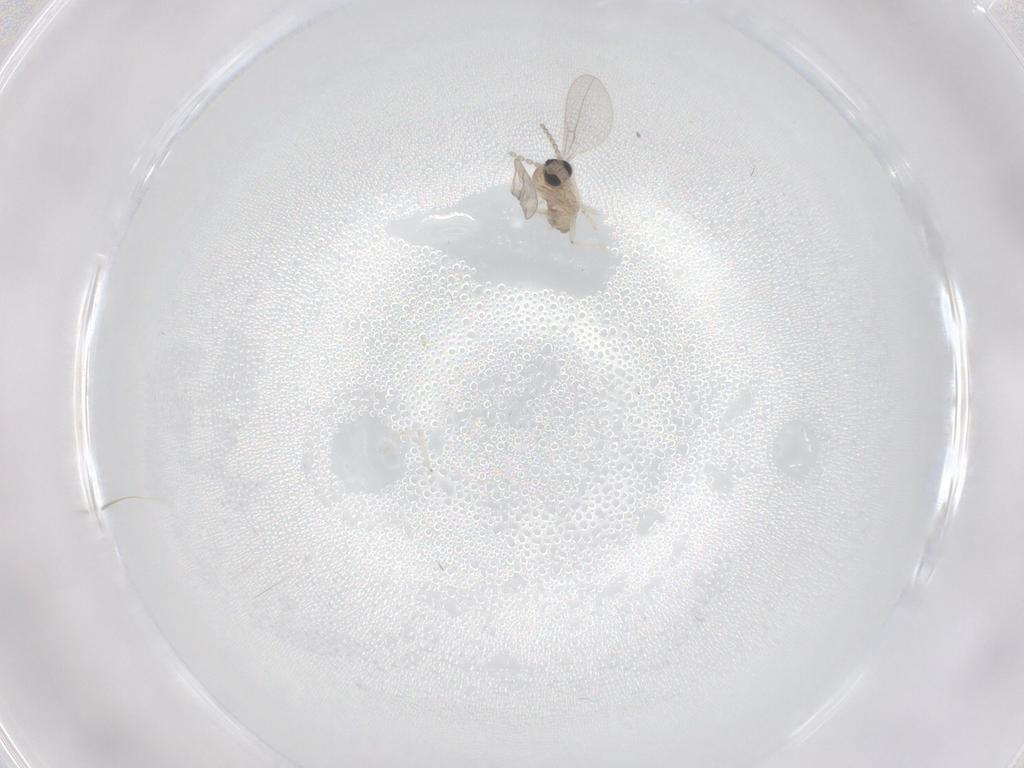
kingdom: Animalia
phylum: Arthropoda
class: Insecta
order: Diptera
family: Cecidomyiidae
